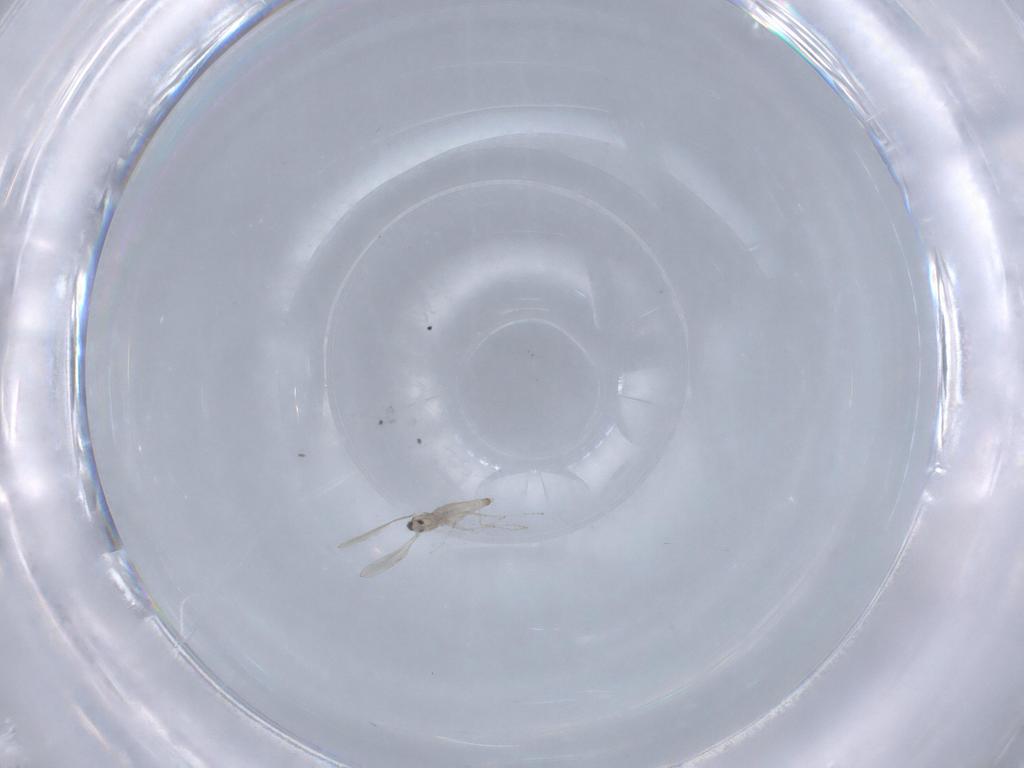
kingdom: Animalia
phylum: Arthropoda
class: Insecta
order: Diptera
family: Cecidomyiidae
